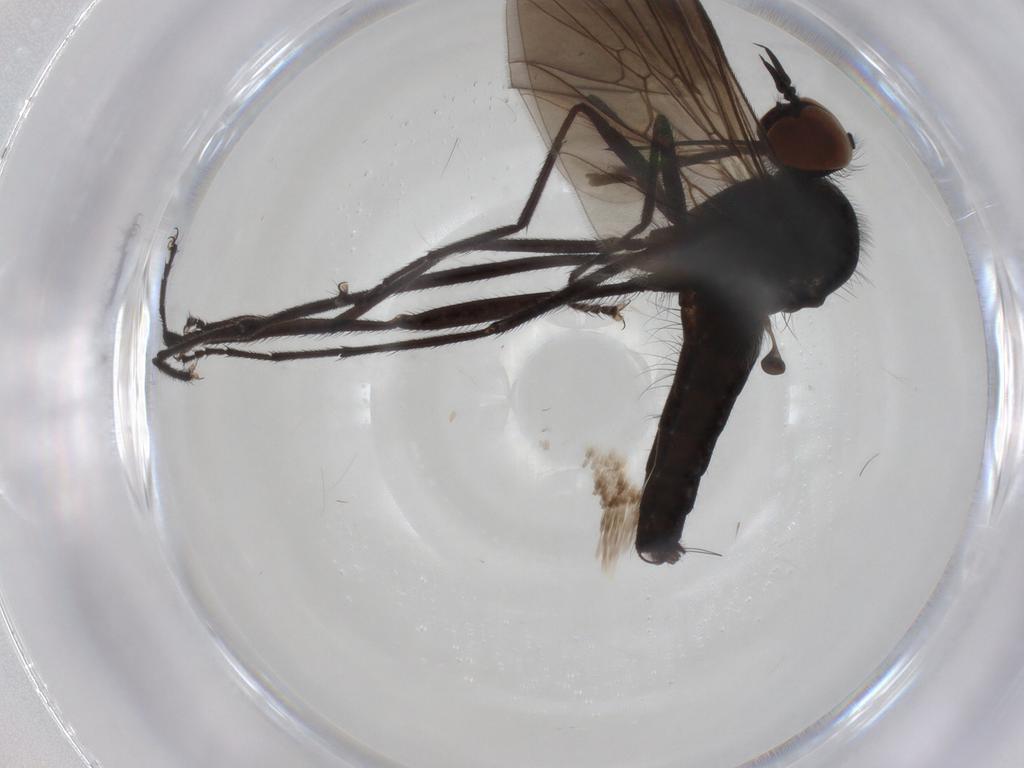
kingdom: Animalia
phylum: Arthropoda
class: Insecta
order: Diptera
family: Empididae
